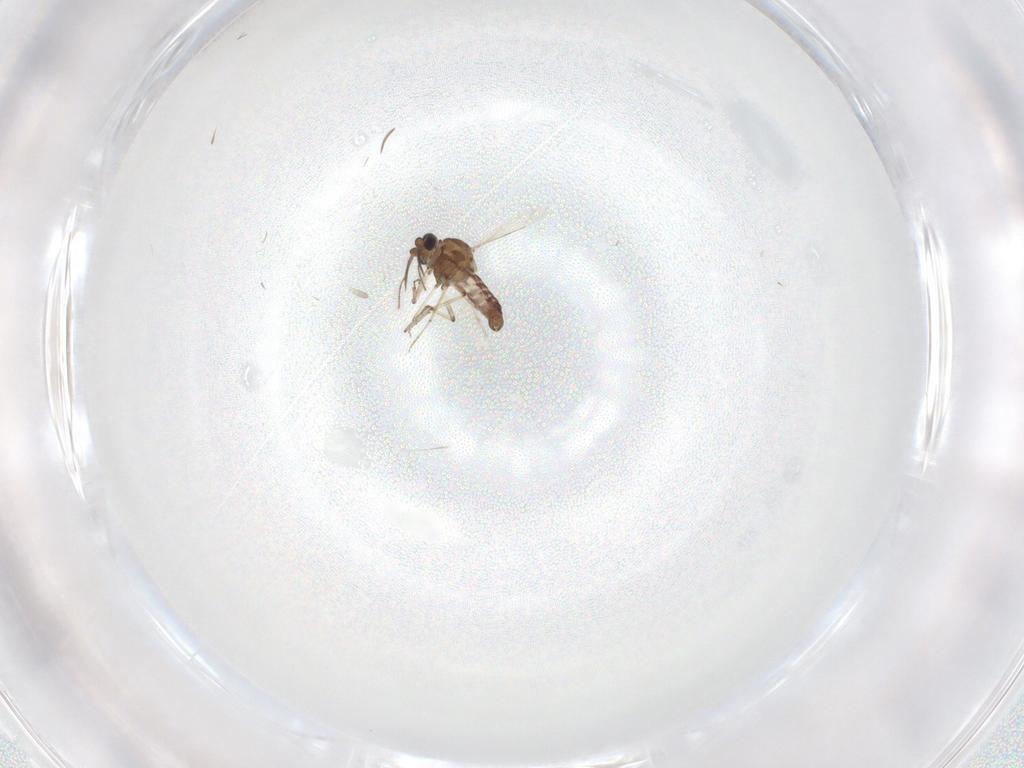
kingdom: Animalia
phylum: Arthropoda
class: Insecta
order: Diptera
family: Ceratopogonidae
